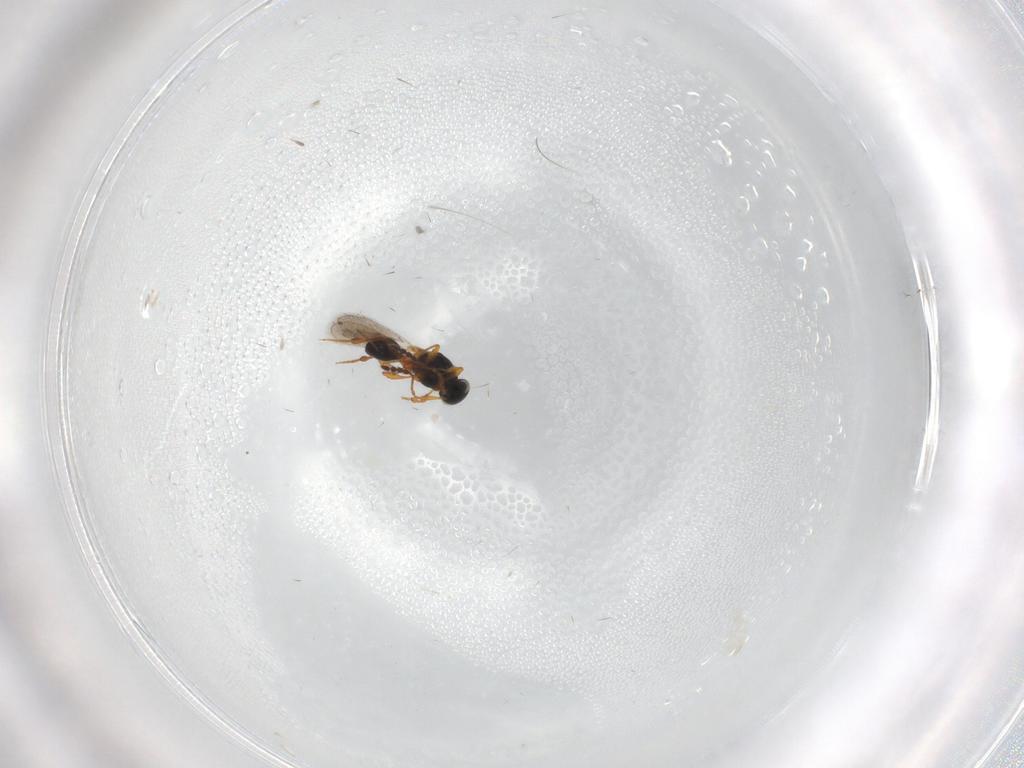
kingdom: Animalia
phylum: Arthropoda
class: Insecta
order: Hymenoptera
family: Platygastridae
